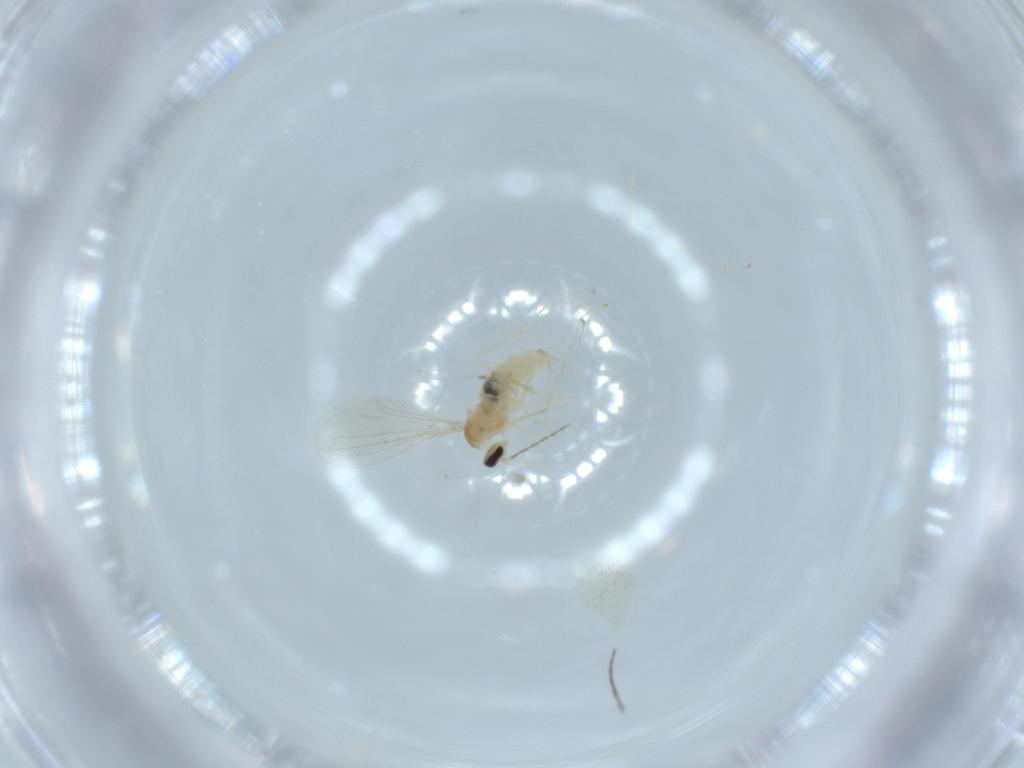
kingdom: Animalia
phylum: Arthropoda
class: Insecta
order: Diptera
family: Cecidomyiidae
